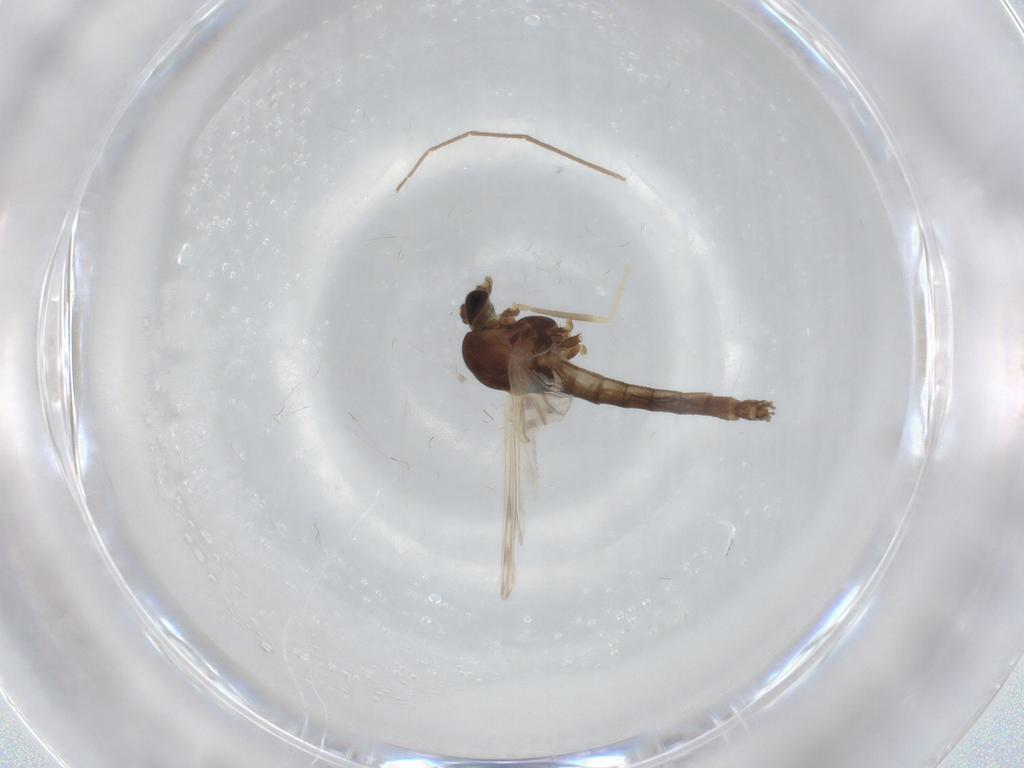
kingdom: Animalia
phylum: Arthropoda
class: Insecta
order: Diptera
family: Chironomidae
